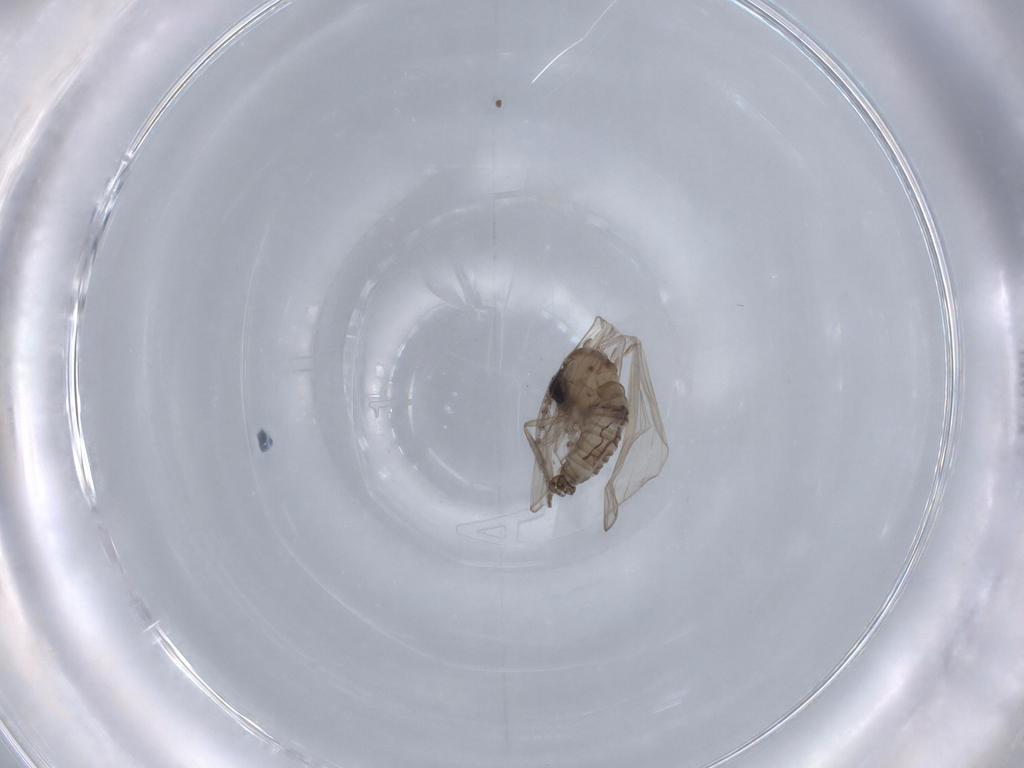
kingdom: Animalia
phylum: Arthropoda
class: Insecta
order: Diptera
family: Psychodidae
